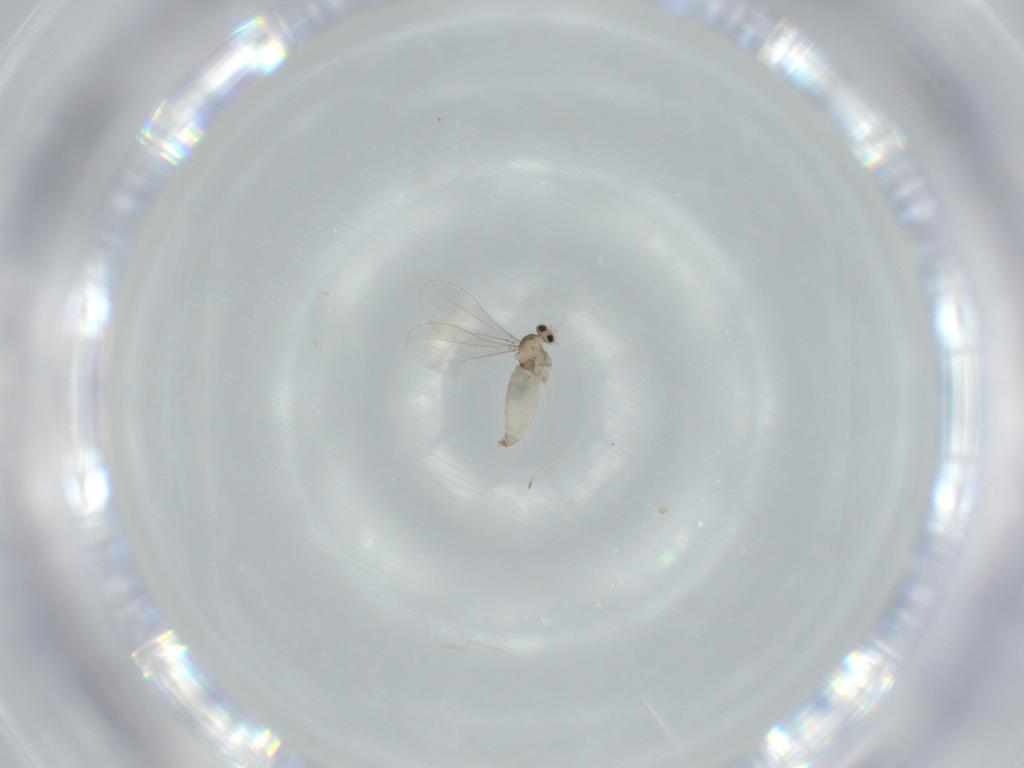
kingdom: Animalia
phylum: Arthropoda
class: Insecta
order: Diptera
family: Cecidomyiidae
